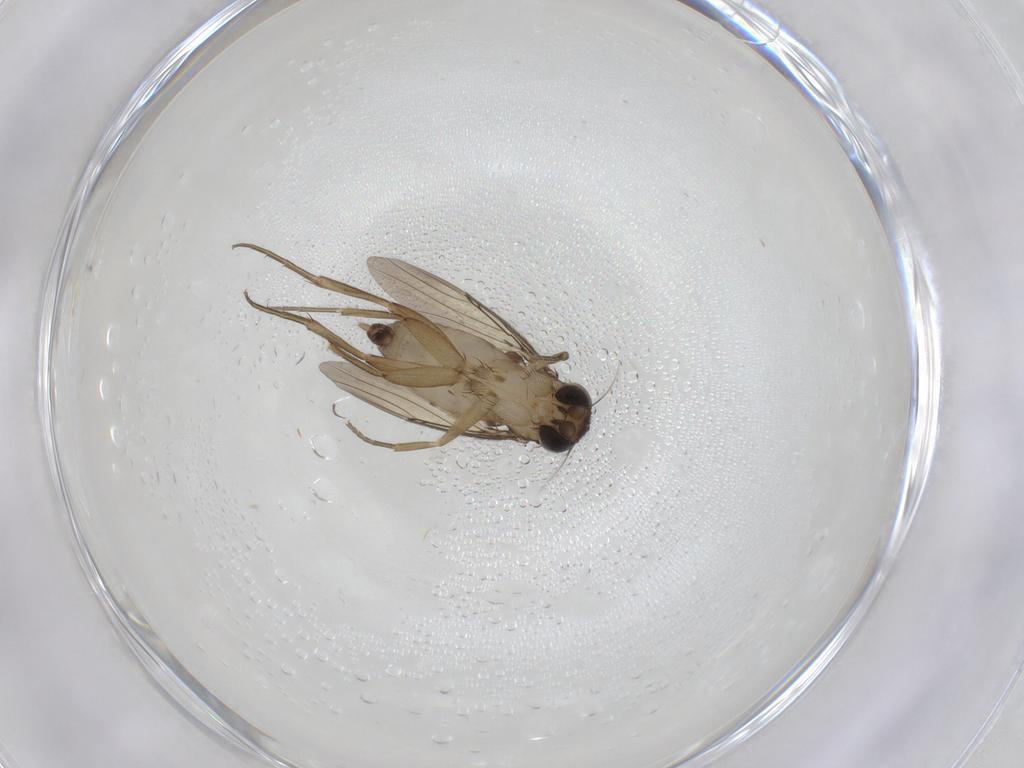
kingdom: Animalia
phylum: Arthropoda
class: Insecta
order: Diptera
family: Phoridae
